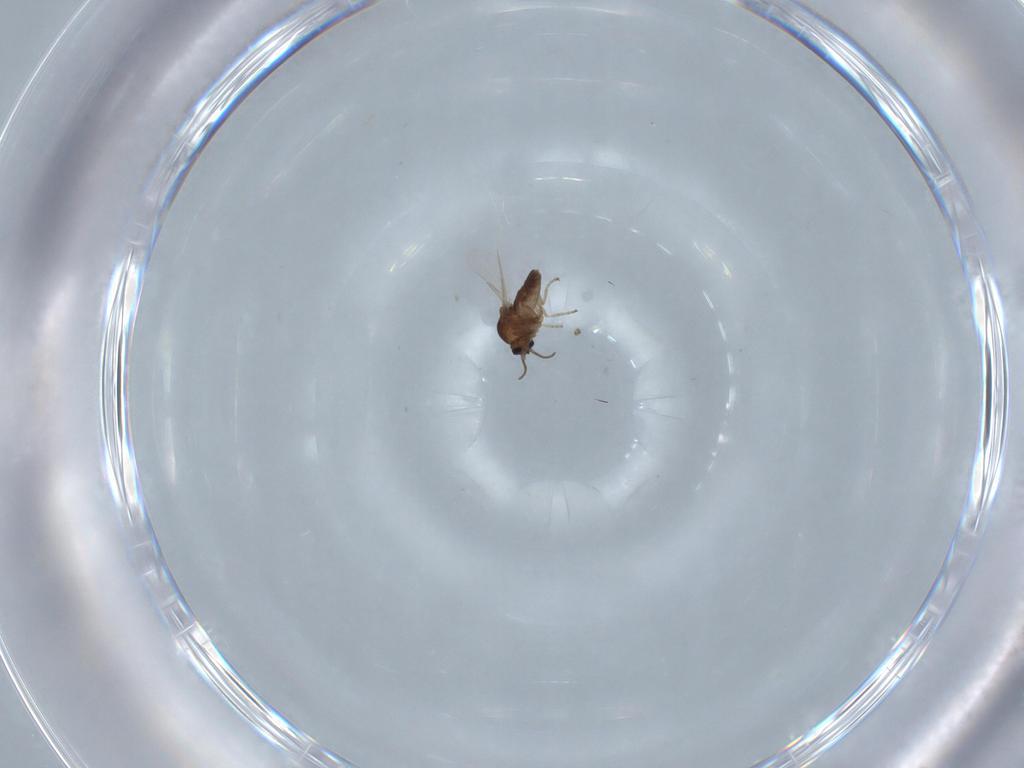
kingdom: Animalia
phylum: Arthropoda
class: Insecta
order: Diptera
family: Ceratopogonidae
